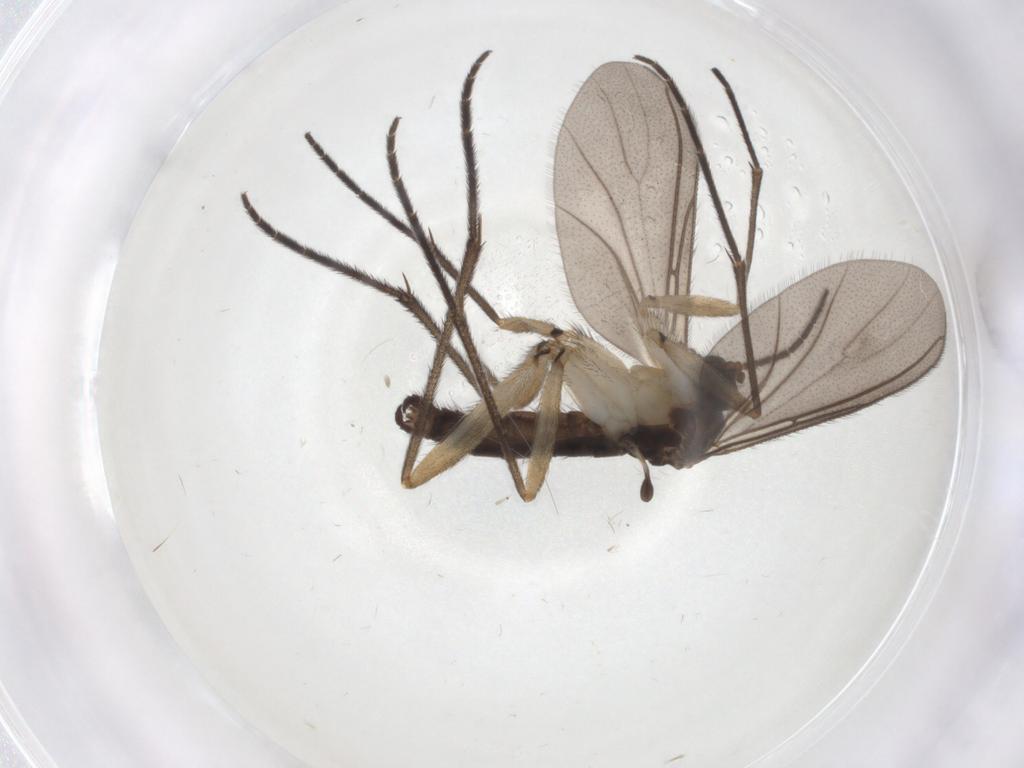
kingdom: Animalia
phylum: Arthropoda
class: Insecta
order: Diptera
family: Sciaridae
